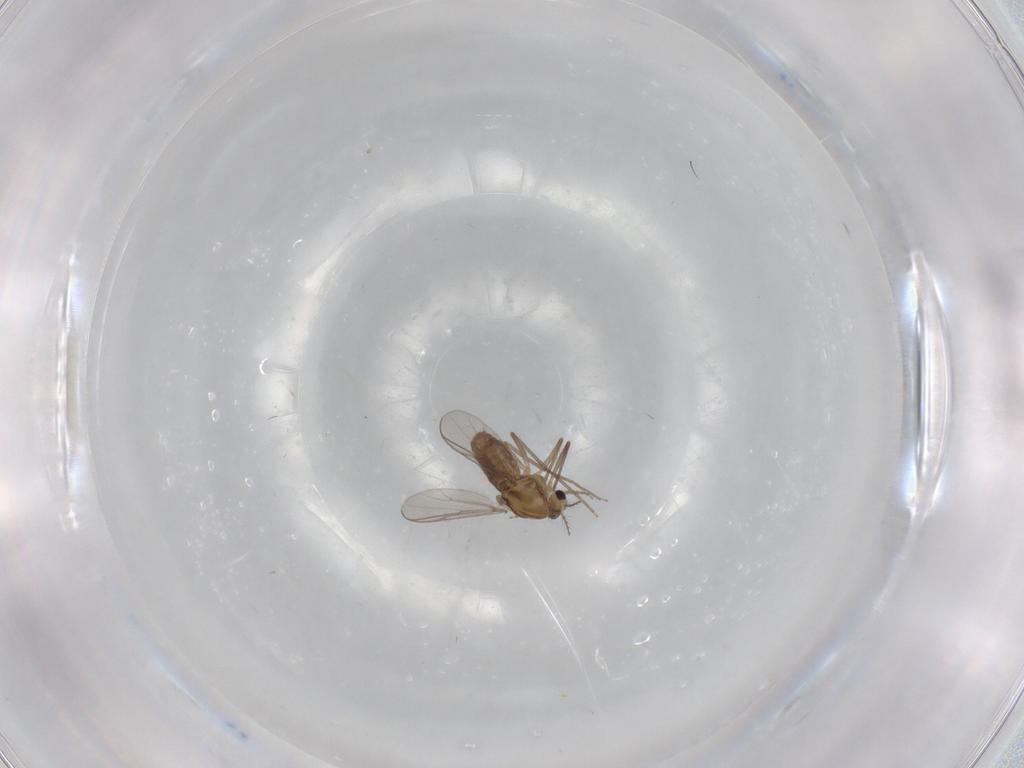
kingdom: Animalia
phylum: Arthropoda
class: Insecta
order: Diptera
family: Chironomidae
